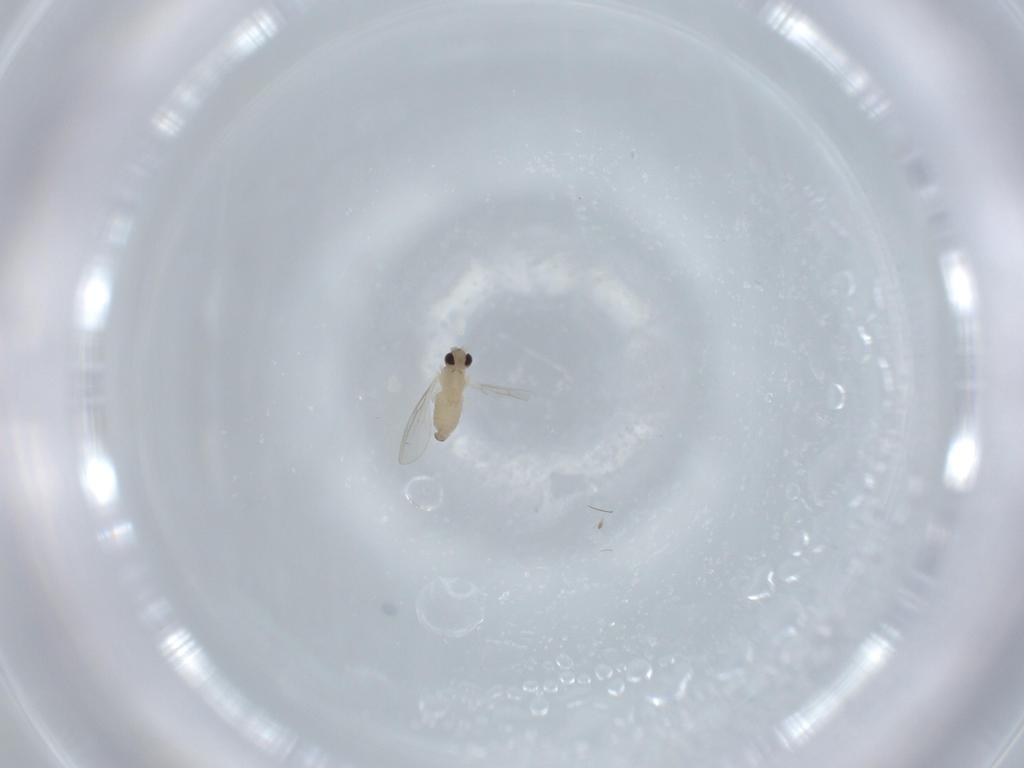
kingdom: Animalia
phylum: Arthropoda
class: Insecta
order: Diptera
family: Cecidomyiidae
